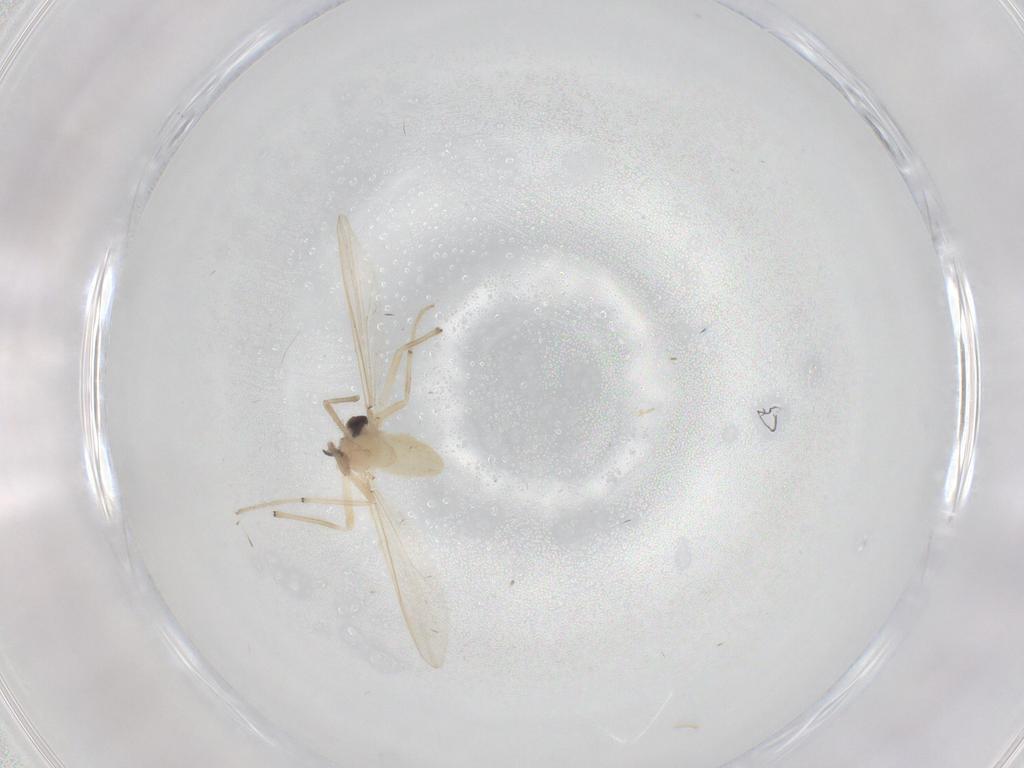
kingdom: Animalia
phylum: Arthropoda
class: Insecta
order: Diptera
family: Chironomidae
